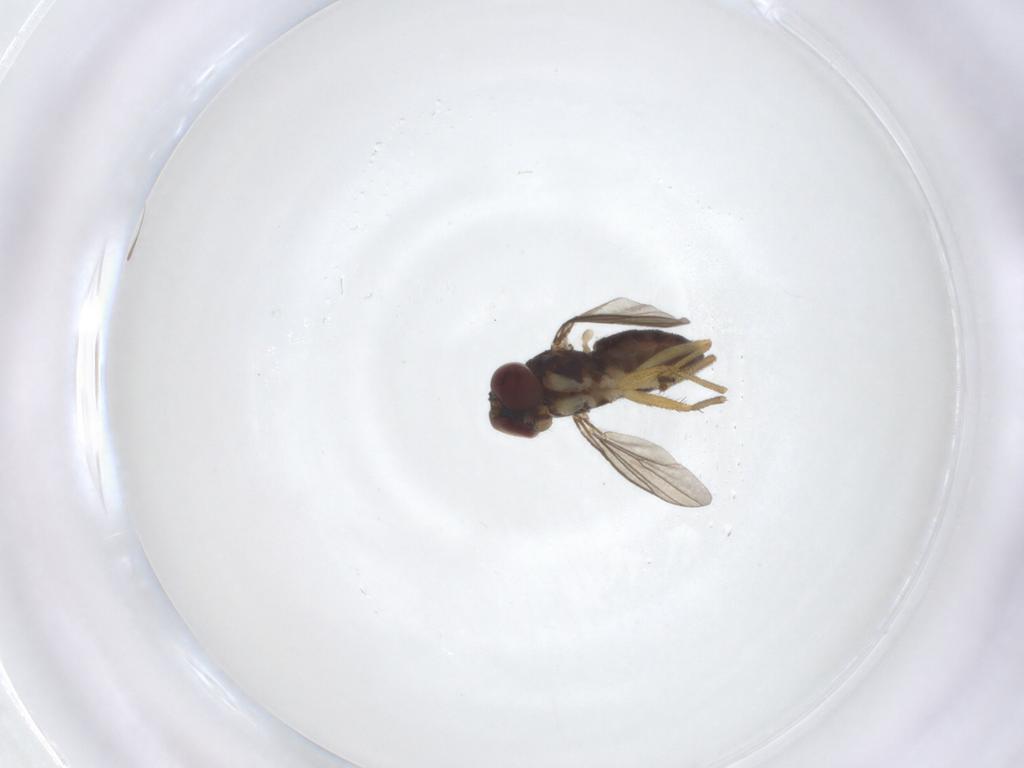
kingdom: Animalia
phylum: Arthropoda
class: Insecta
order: Diptera
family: Dolichopodidae
